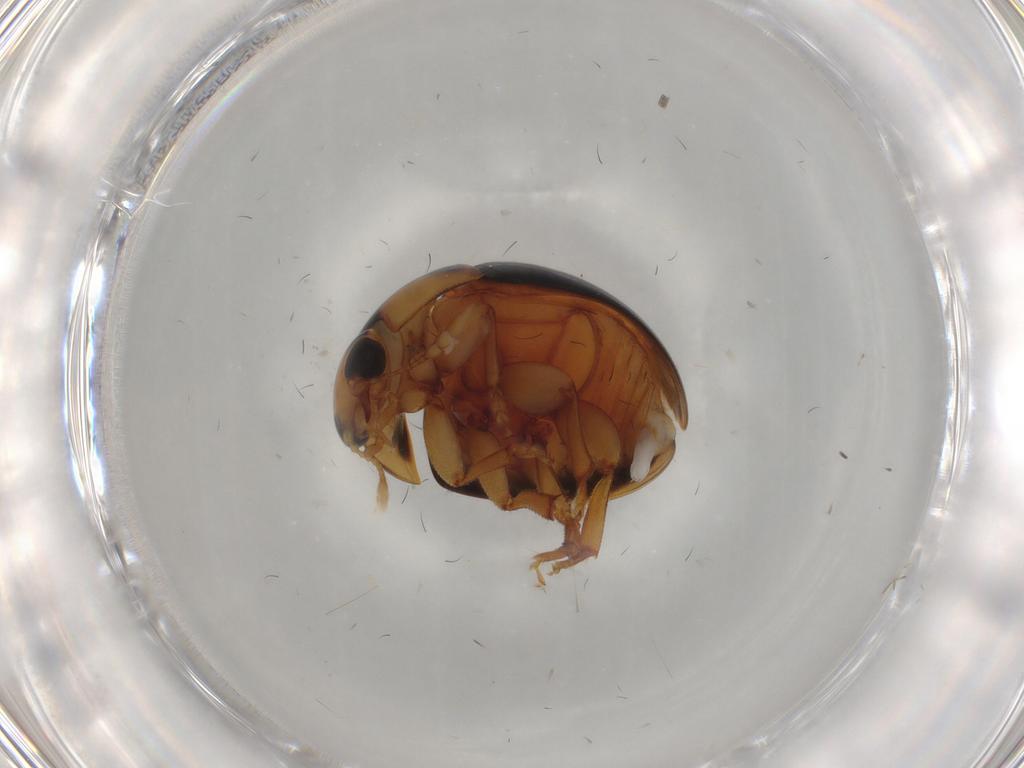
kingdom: Animalia
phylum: Arthropoda
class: Insecta
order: Coleoptera
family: Phalacridae
